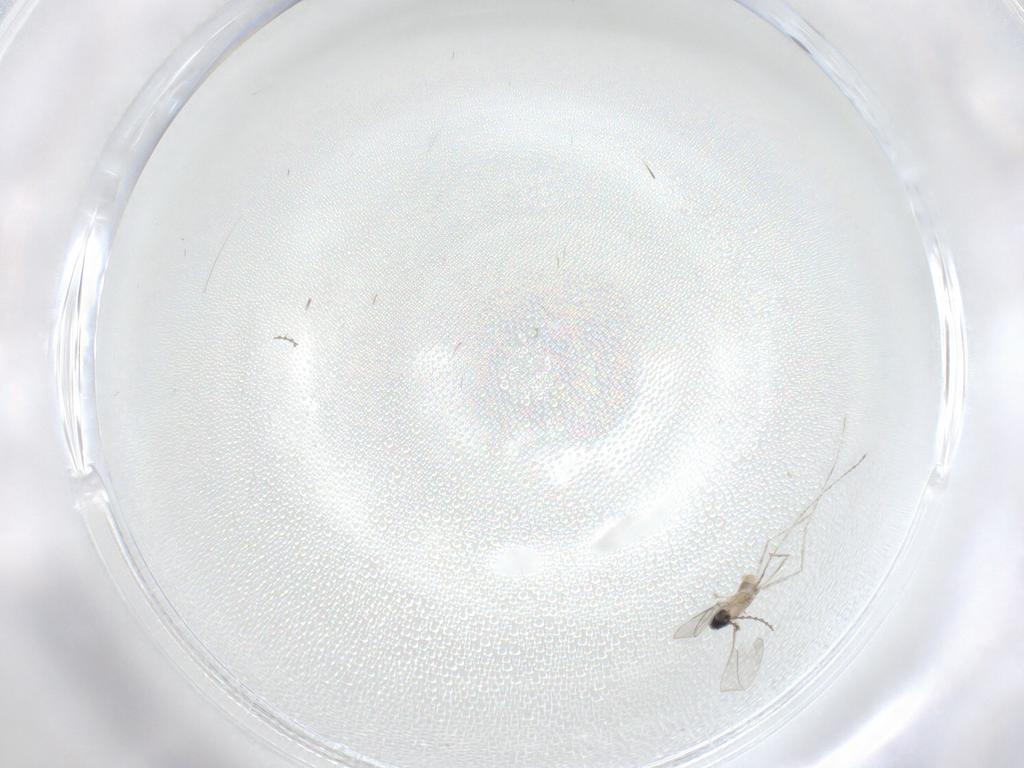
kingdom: Animalia
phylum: Arthropoda
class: Insecta
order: Diptera
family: Cecidomyiidae
